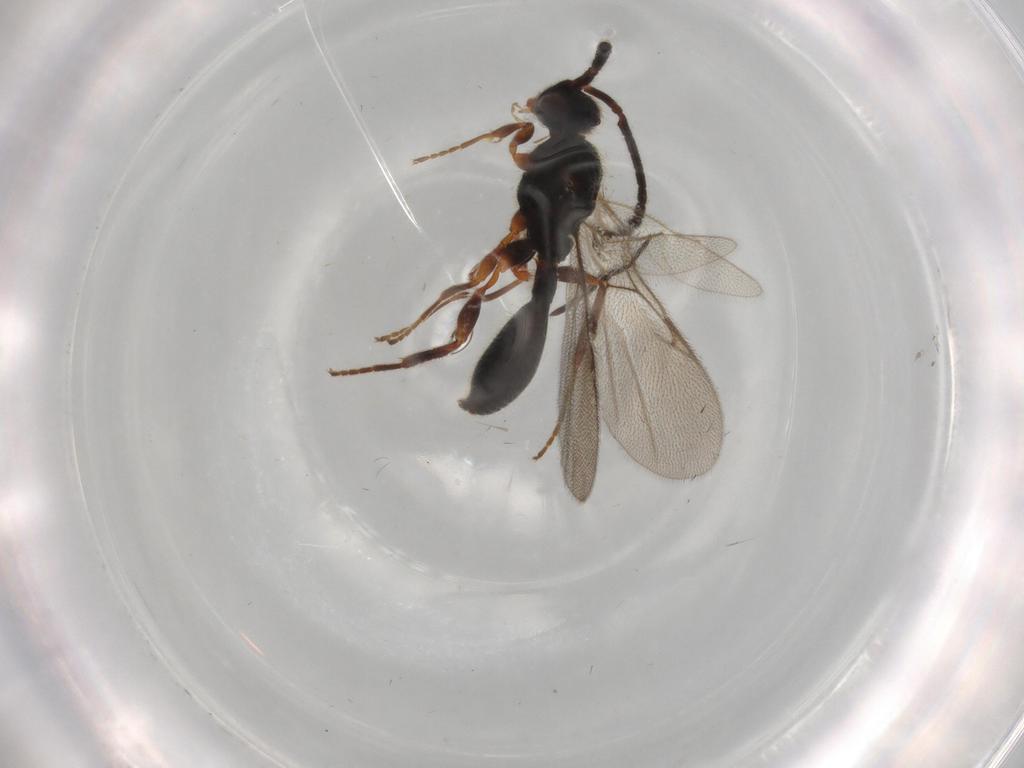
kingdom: Animalia
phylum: Arthropoda
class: Insecta
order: Hymenoptera
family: Formicidae
